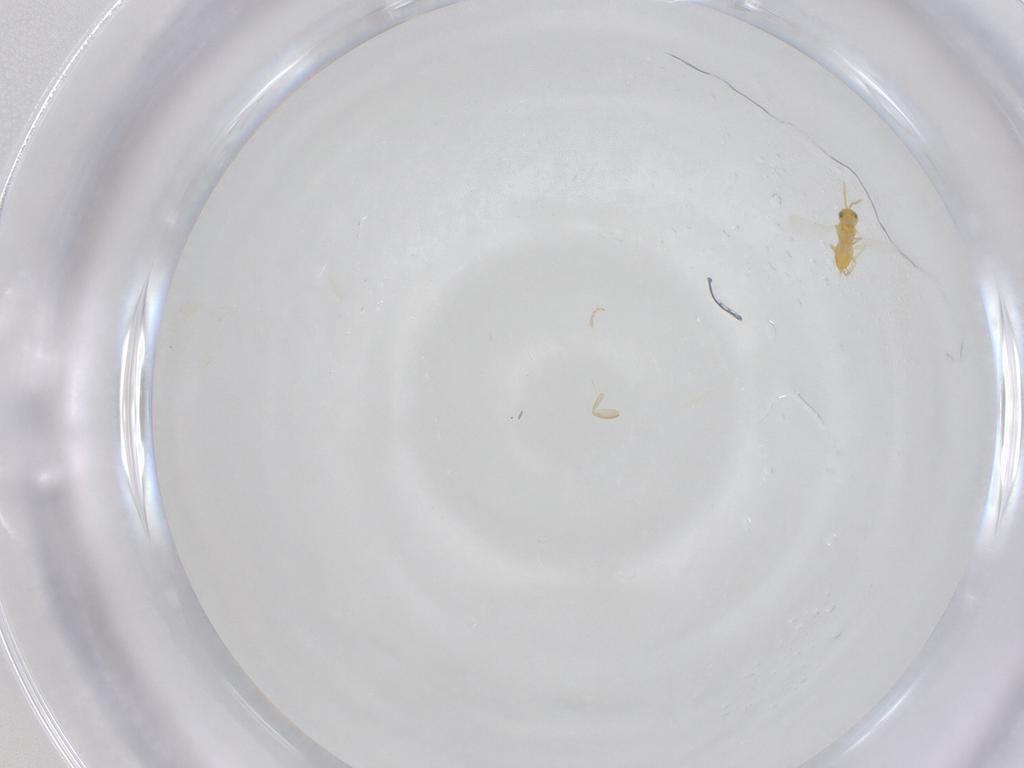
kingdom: Animalia
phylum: Arthropoda
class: Insecta
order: Hymenoptera
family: Aphelinidae
